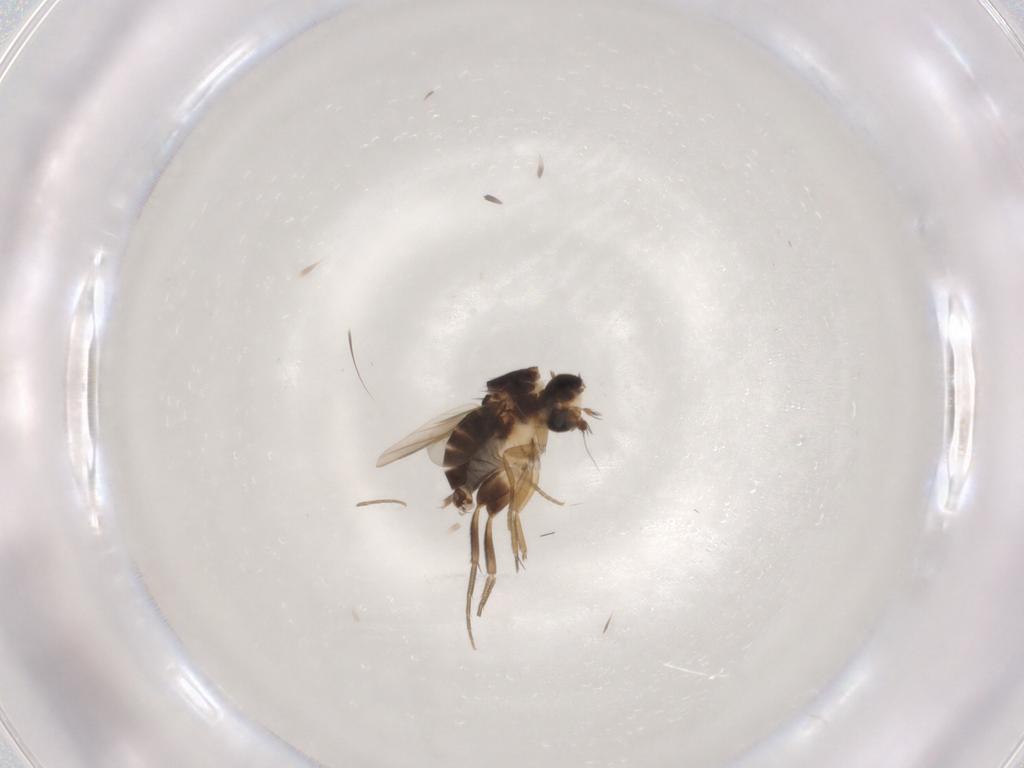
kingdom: Animalia
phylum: Arthropoda
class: Insecta
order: Diptera
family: Phoridae
